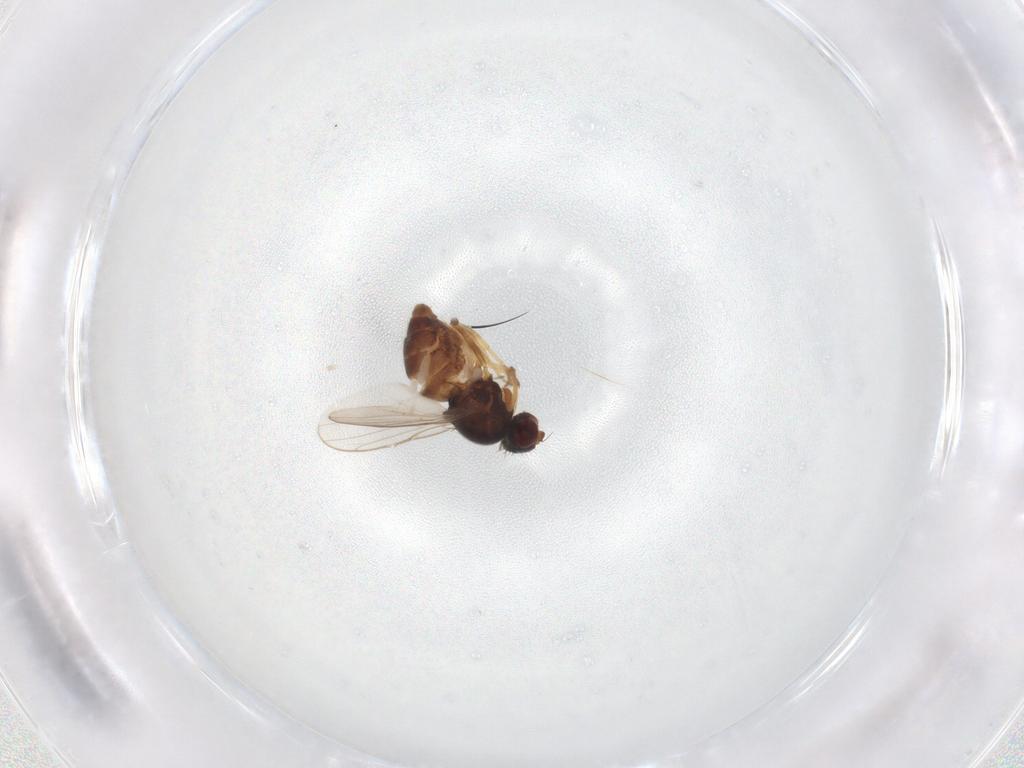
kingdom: Animalia
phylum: Arthropoda
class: Insecta
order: Diptera
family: Chloropidae
